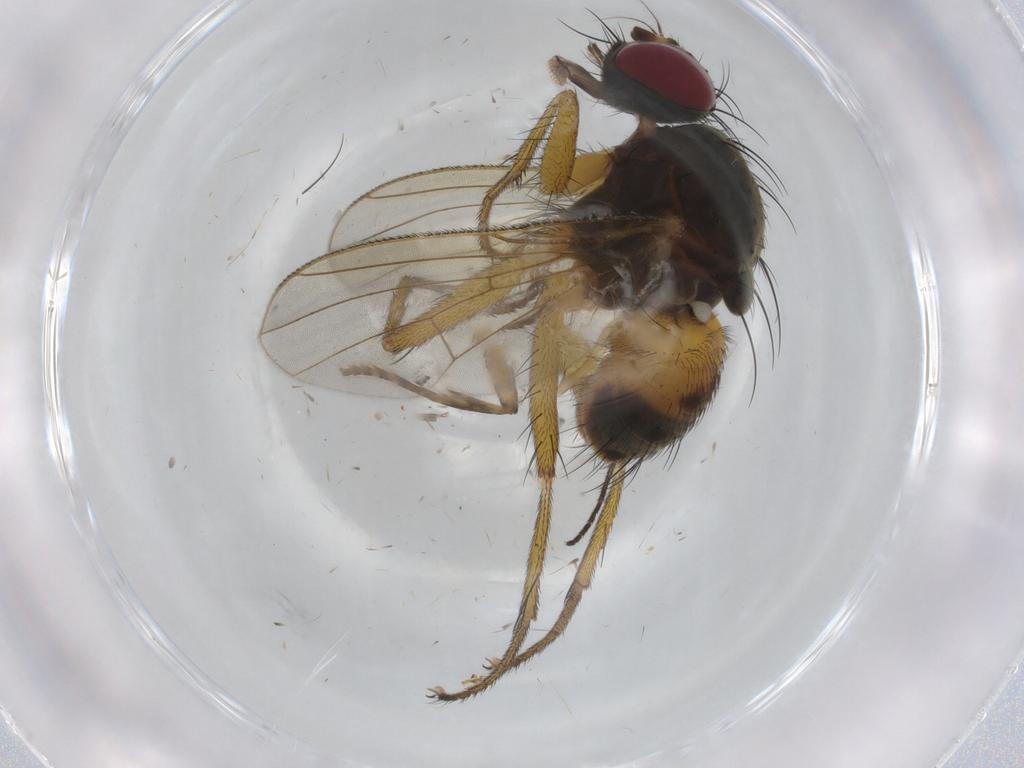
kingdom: Animalia
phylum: Arthropoda
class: Insecta
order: Diptera
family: Muscidae
